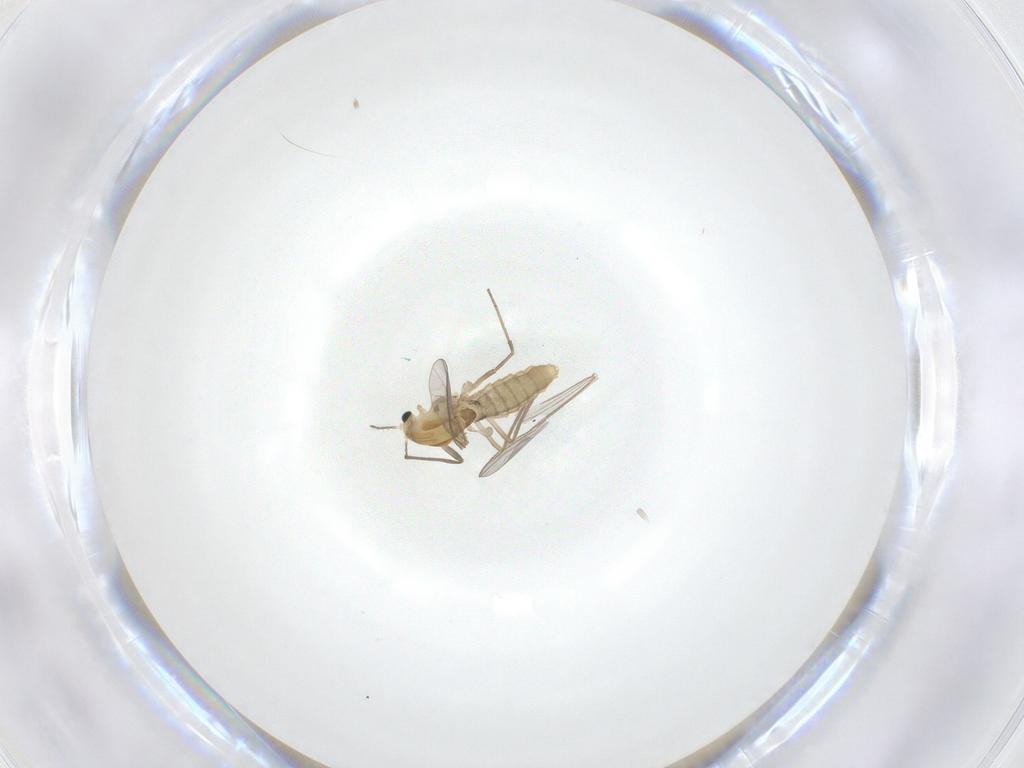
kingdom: Animalia
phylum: Arthropoda
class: Insecta
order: Diptera
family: Chironomidae
